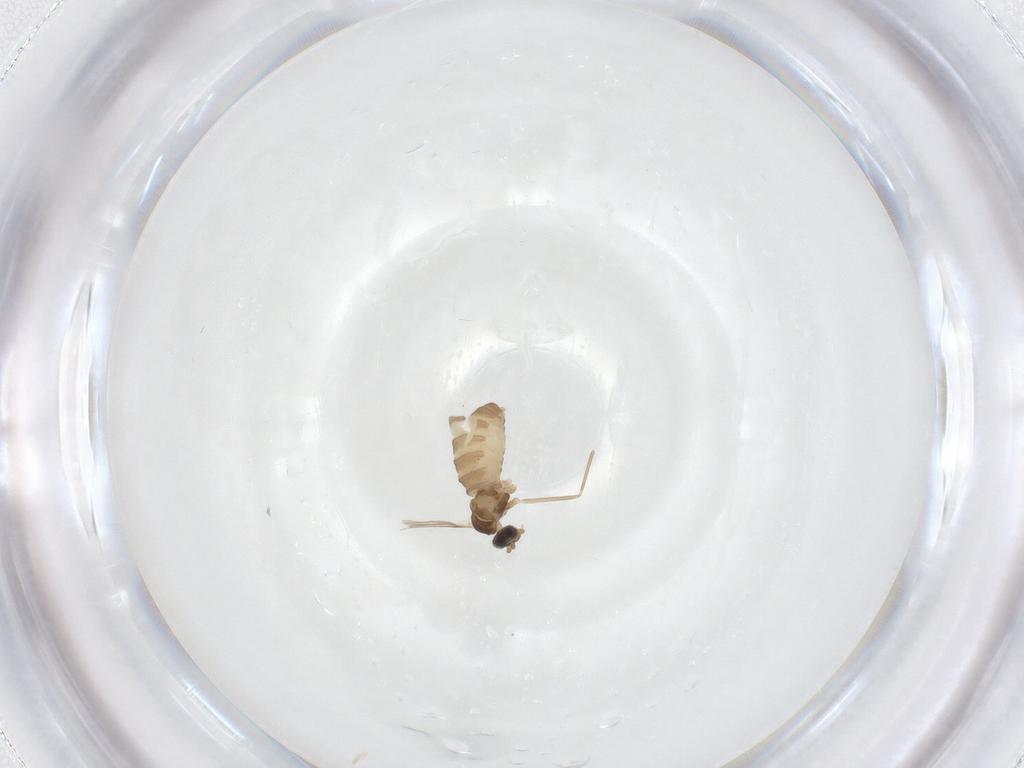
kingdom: Animalia
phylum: Arthropoda
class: Insecta
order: Diptera
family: Cecidomyiidae
